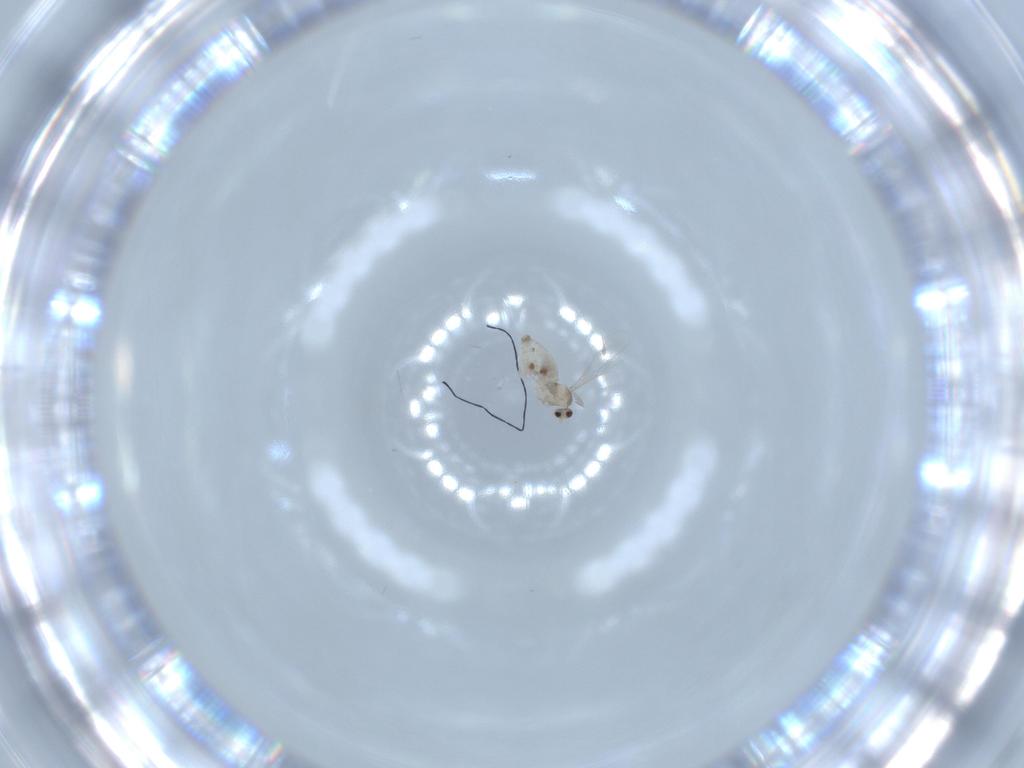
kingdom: Animalia
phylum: Arthropoda
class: Insecta
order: Diptera
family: Cecidomyiidae
